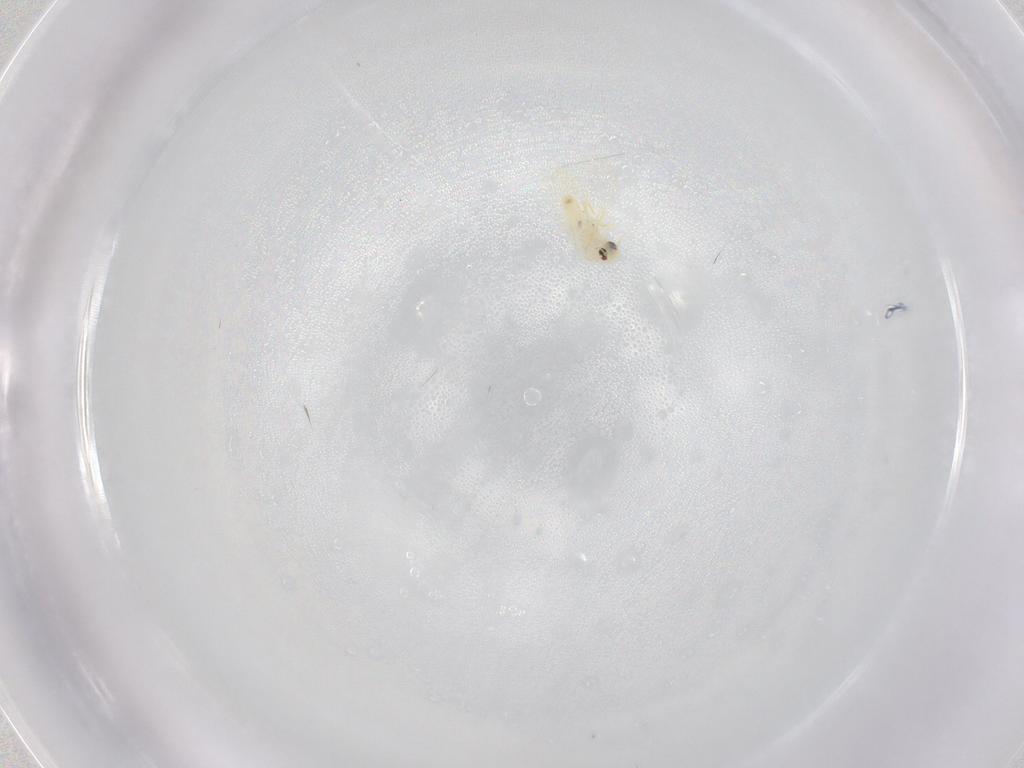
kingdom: Animalia
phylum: Arthropoda
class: Insecta
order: Hemiptera
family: Aleyrodidae
